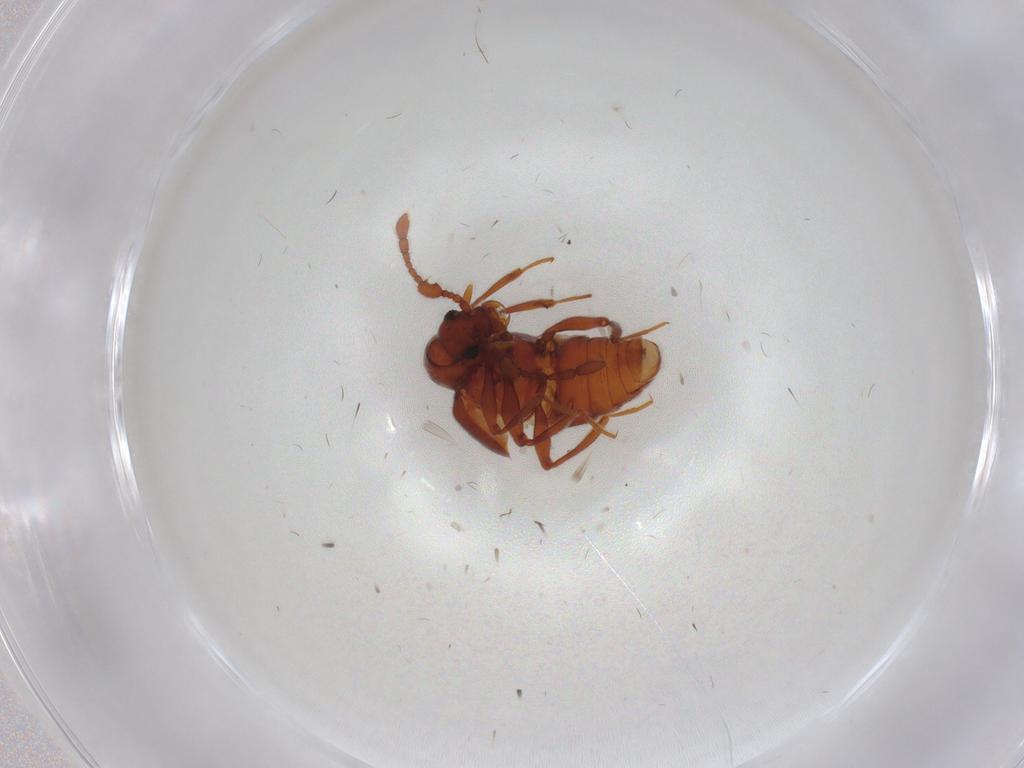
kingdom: Animalia
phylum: Arthropoda
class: Insecta
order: Coleoptera
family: Staphylinidae
